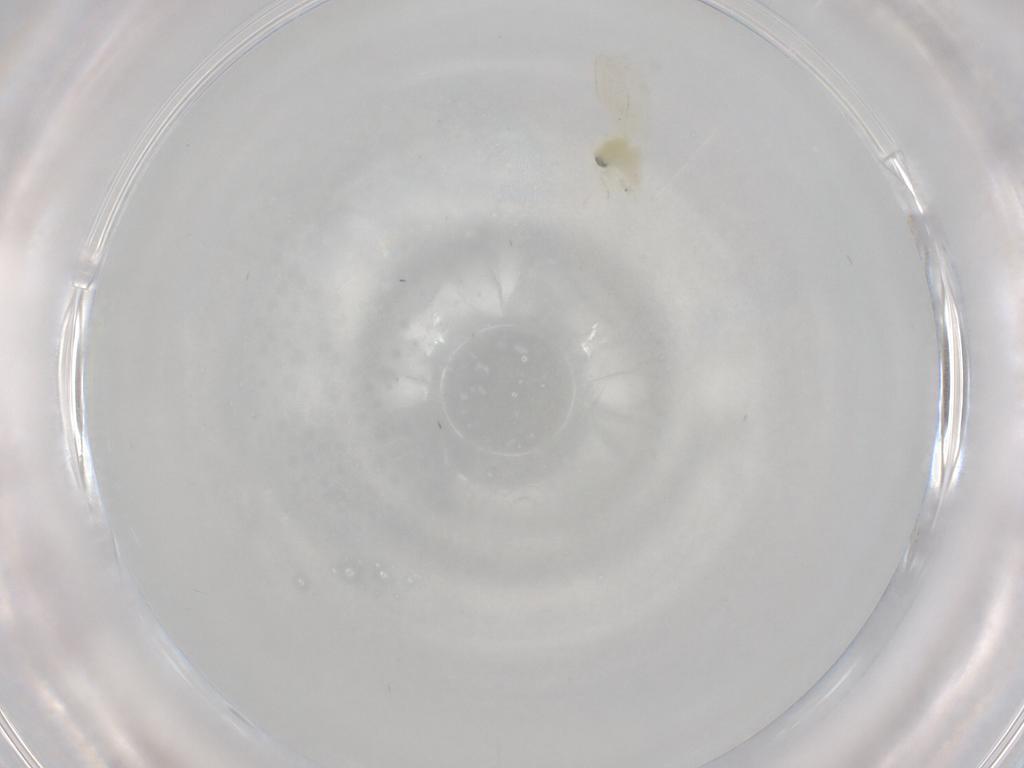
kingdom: Animalia
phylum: Arthropoda
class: Insecta
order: Hemiptera
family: Aleyrodidae
